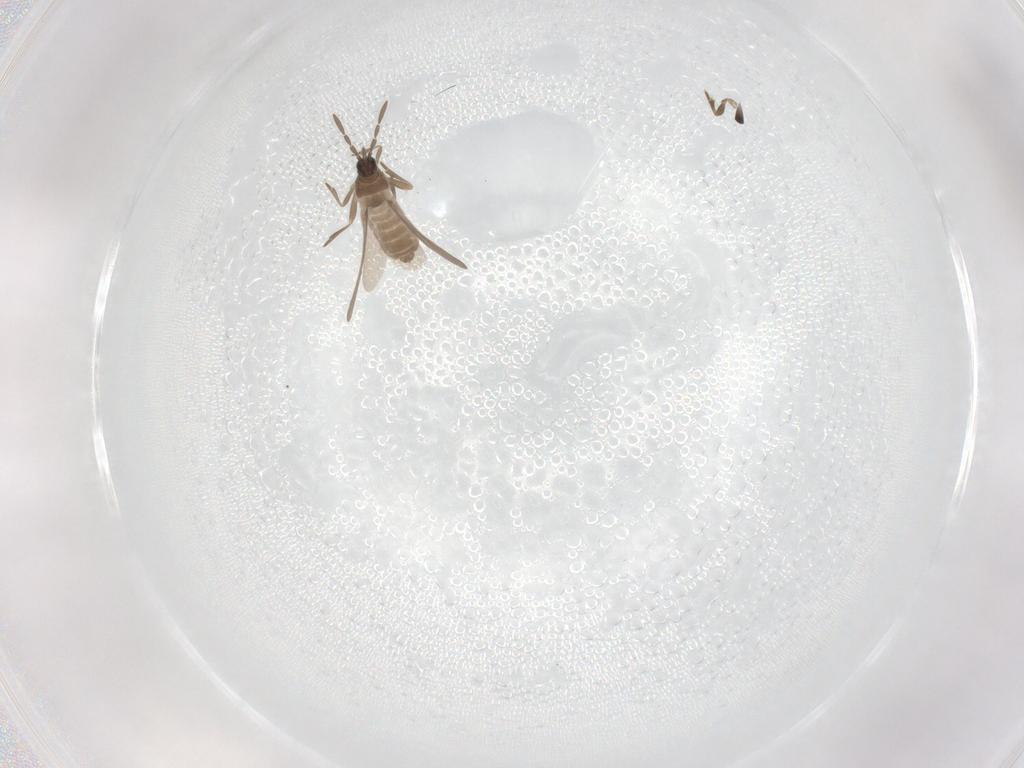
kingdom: Animalia
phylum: Arthropoda
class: Insecta
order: Hemiptera
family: Enicocephalidae
